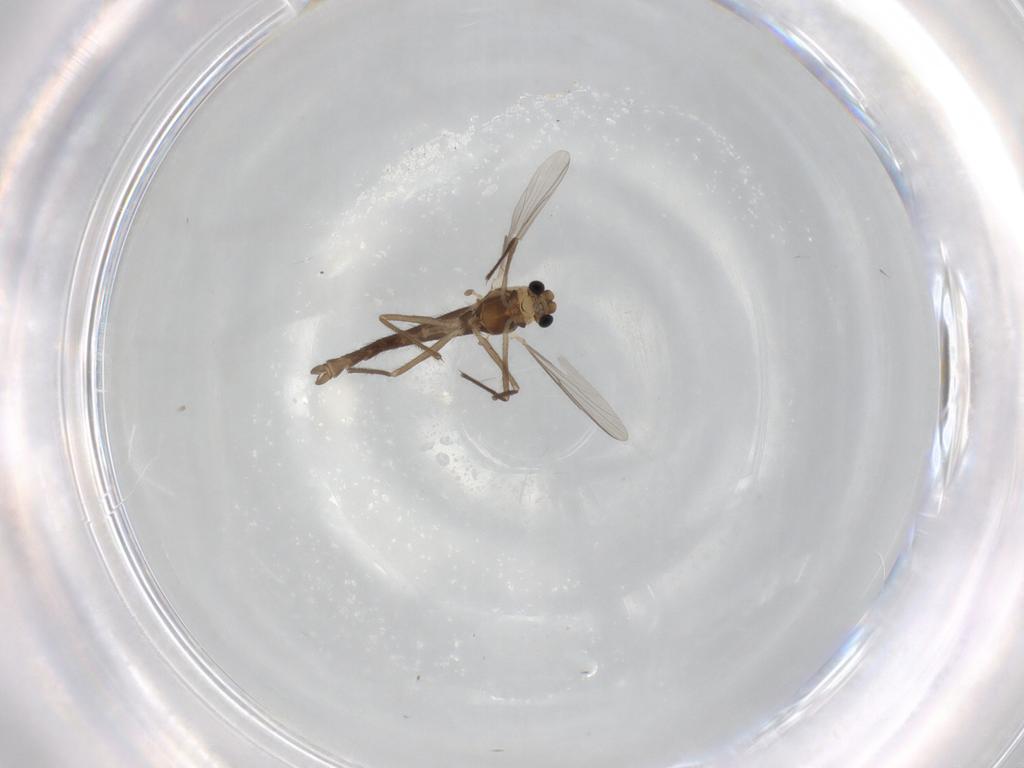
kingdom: Animalia
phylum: Arthropoda
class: Insecta
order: Diptera
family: Chironomidae
